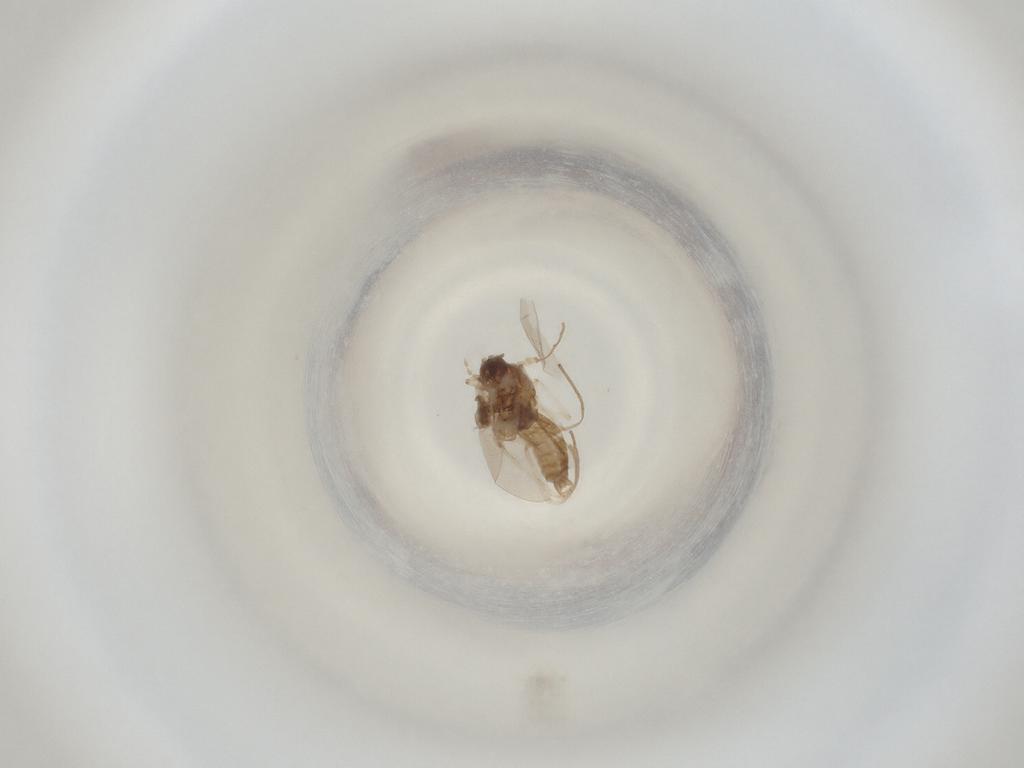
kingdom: Animalia
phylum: Arthropoda
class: Insecta
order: Diptera
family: Cecidomyiidae
